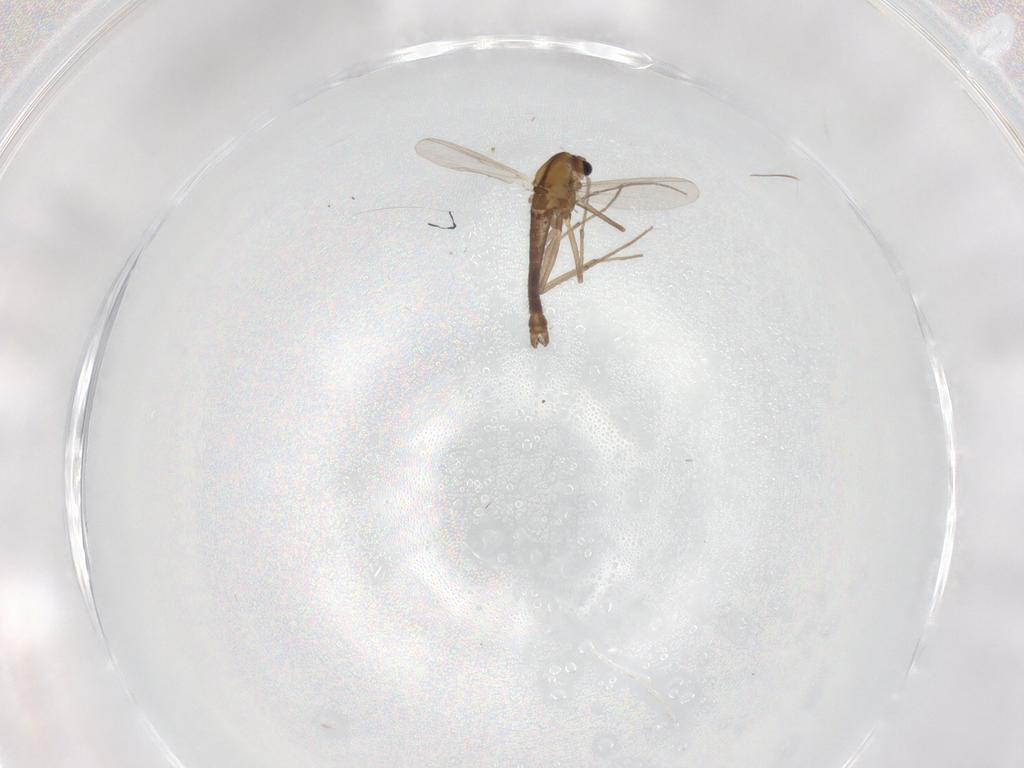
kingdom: Animalia
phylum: Arthropoda
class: Insecta
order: Diptera
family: Chironomidae
